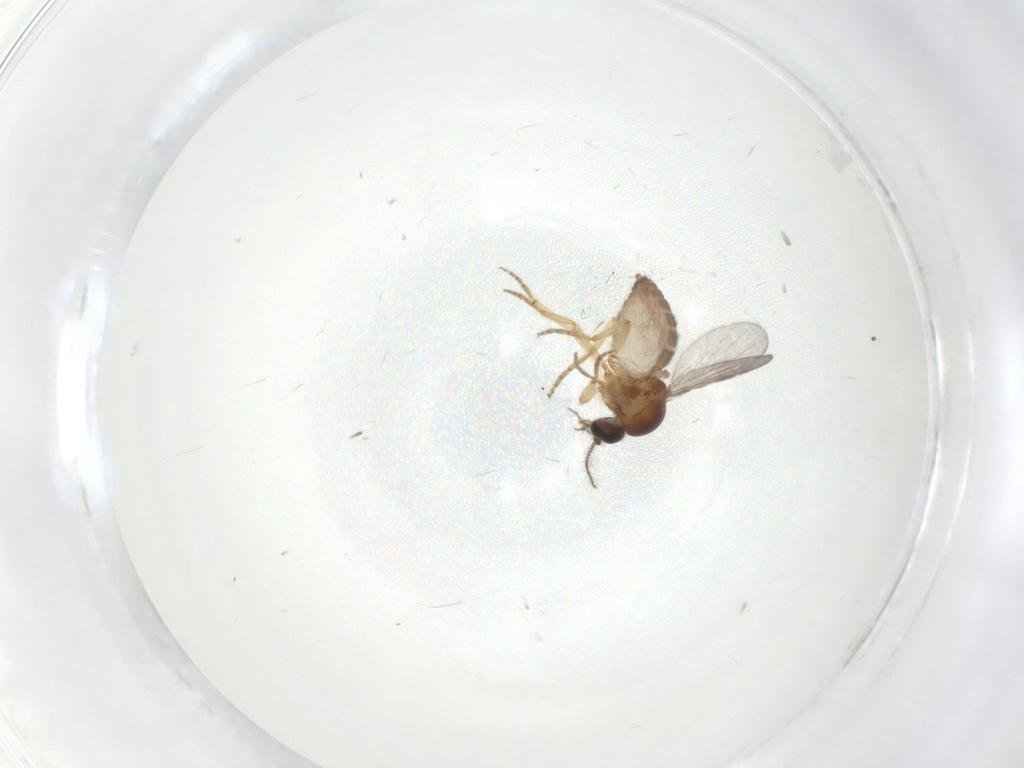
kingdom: Animalia
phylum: Arthropoda
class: Insecta
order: Diptera
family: Ceratopogonidae
